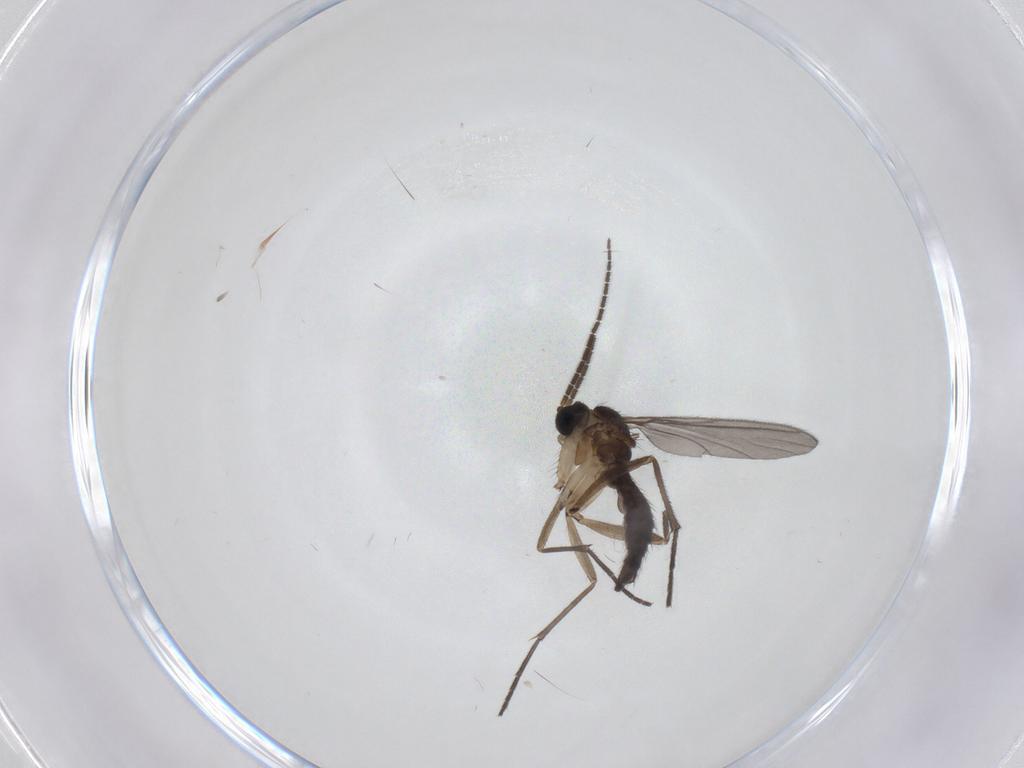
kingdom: Animalia
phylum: Arthropoda
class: Insecta
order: Diptera
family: Sciaridae
